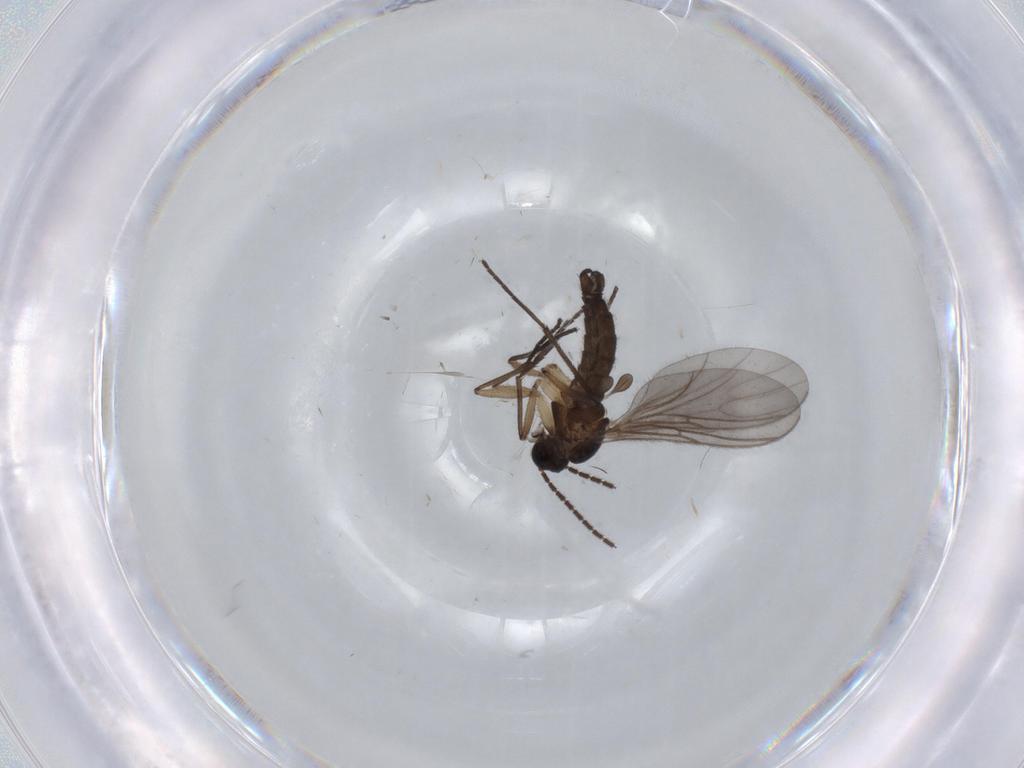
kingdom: Animalia
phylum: Arthropoda
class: Insecta
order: Diptera
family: Sciaridae
